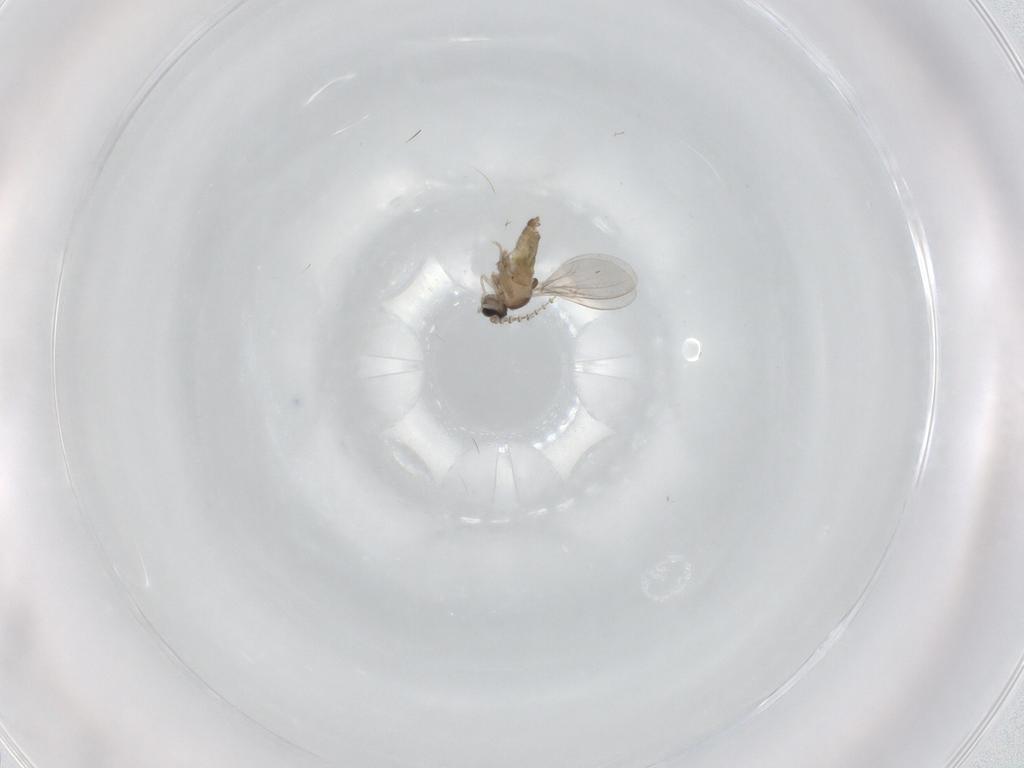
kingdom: Animalia
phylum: Arthropoda
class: Insecta
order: Diptera
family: Psychodidae
